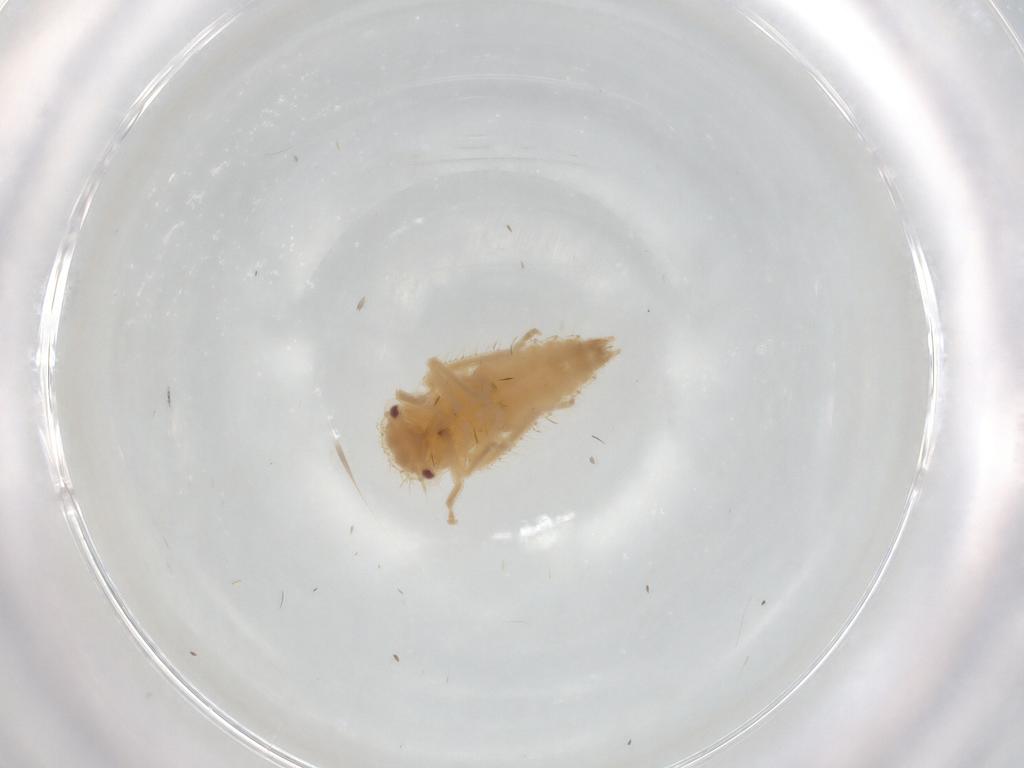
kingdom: Animalia
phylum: Arthropoda
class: Insecta
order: Hemiptera
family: Cicadellidae
